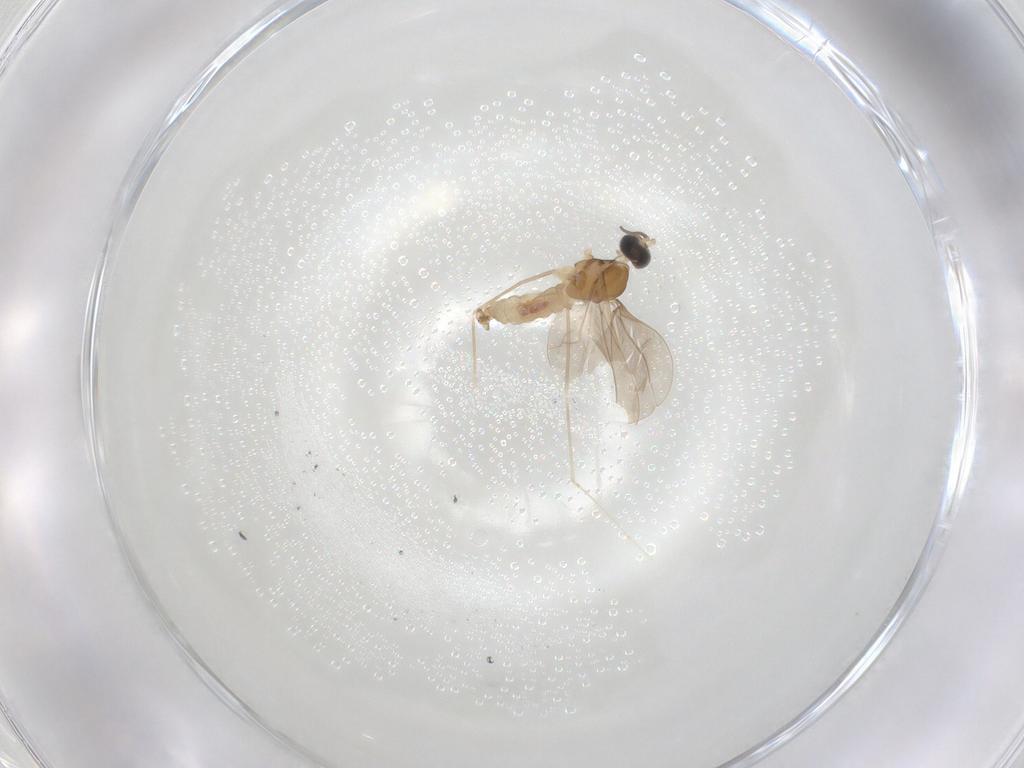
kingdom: Animalia
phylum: Arthropoda
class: Insecta
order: Diptera
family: Cecidomyiidae
